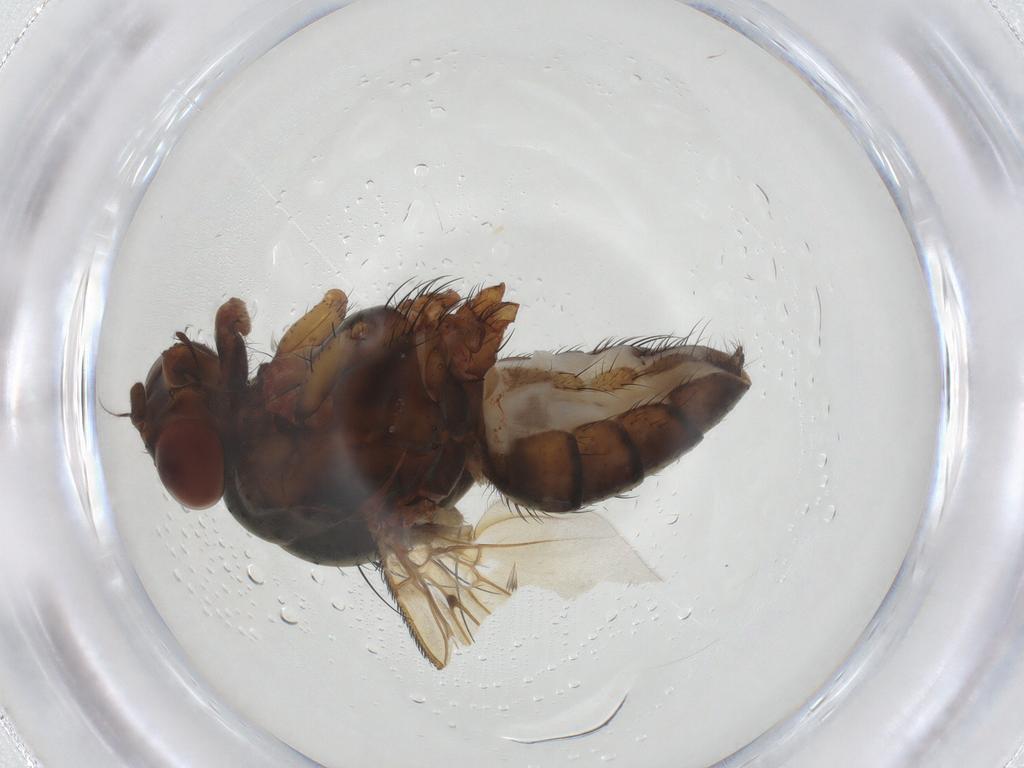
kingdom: Animalia
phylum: Arthropoda
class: Insecta
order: Diptera
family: Anthomyiidae
